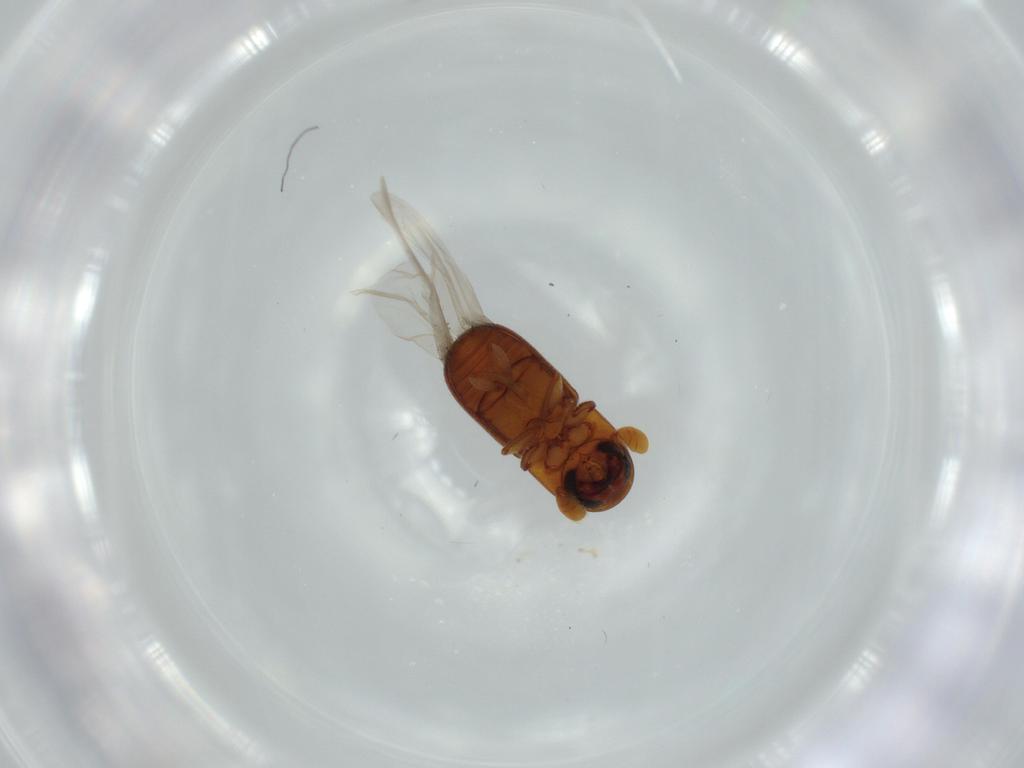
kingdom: Animalia
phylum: Arthropoda
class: Insecta
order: Coleoptera
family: Curculionidae
